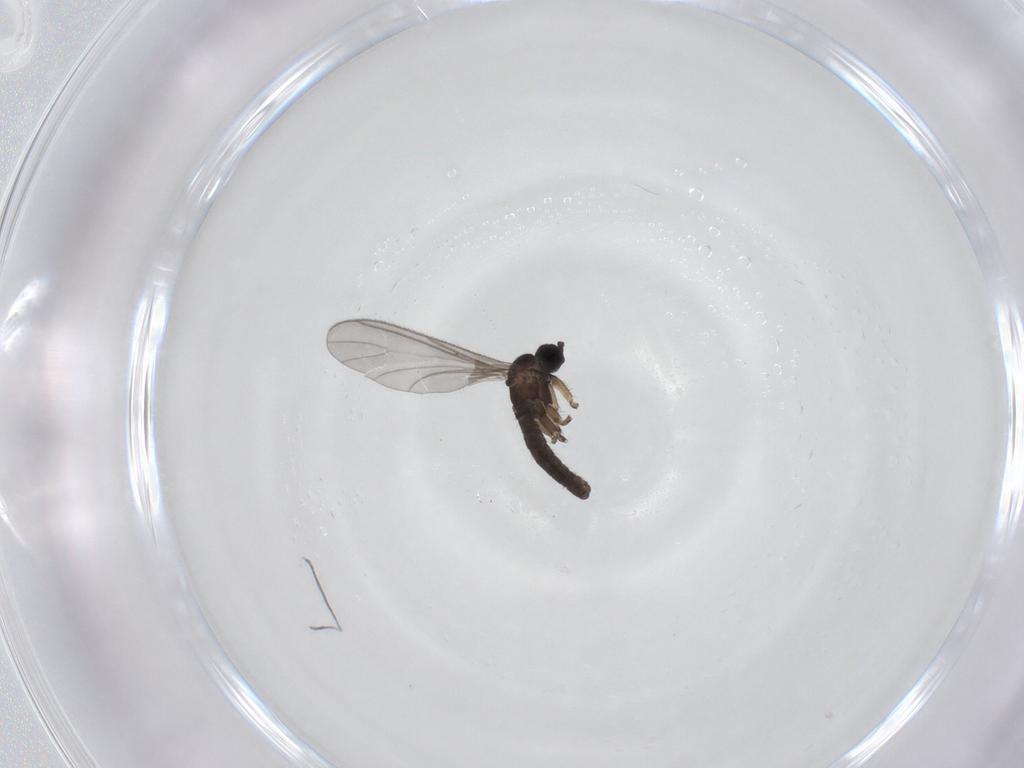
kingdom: Animalia
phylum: Arthropoda
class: Insecta
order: Diptera
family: Sciaridae
